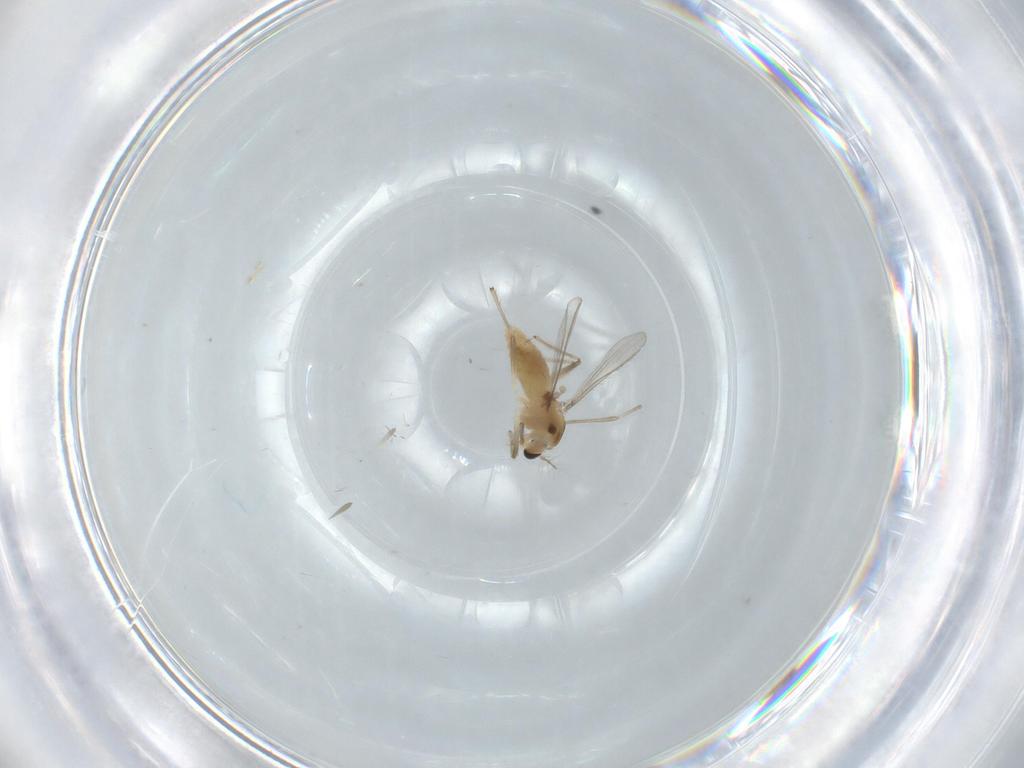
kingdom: Animalia
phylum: Arthropoda
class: Insecta
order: Diptera
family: Chironomidae
